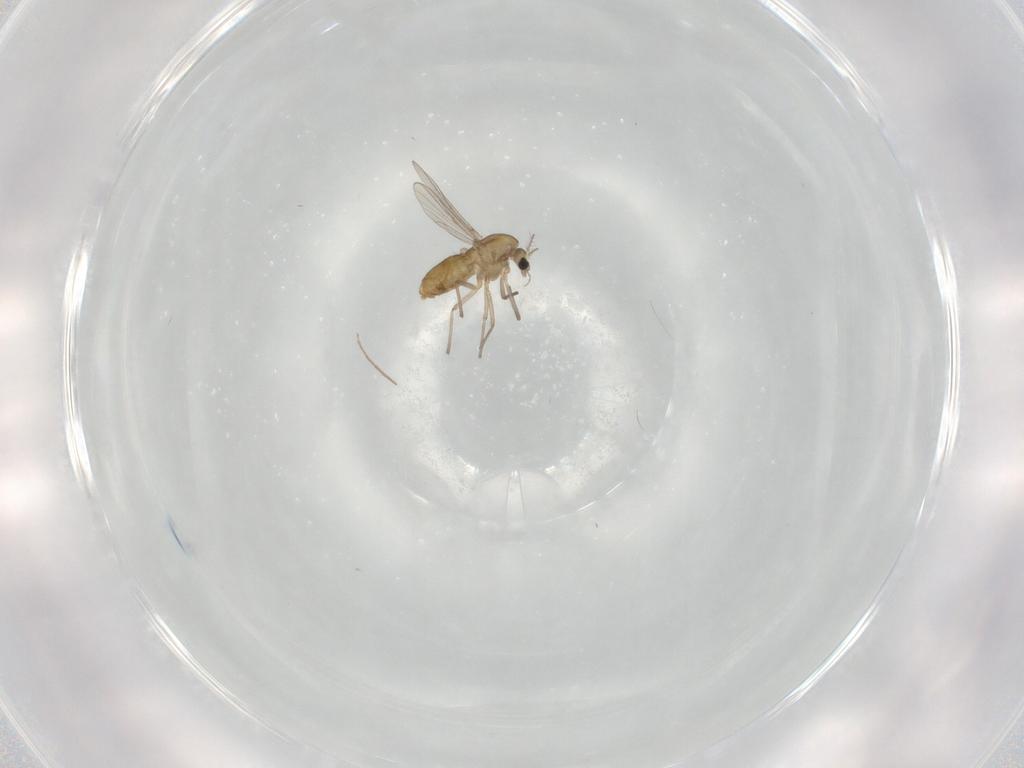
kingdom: Animalia
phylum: Arthropoda
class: Insecta
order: Diptera
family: Chironomidae
